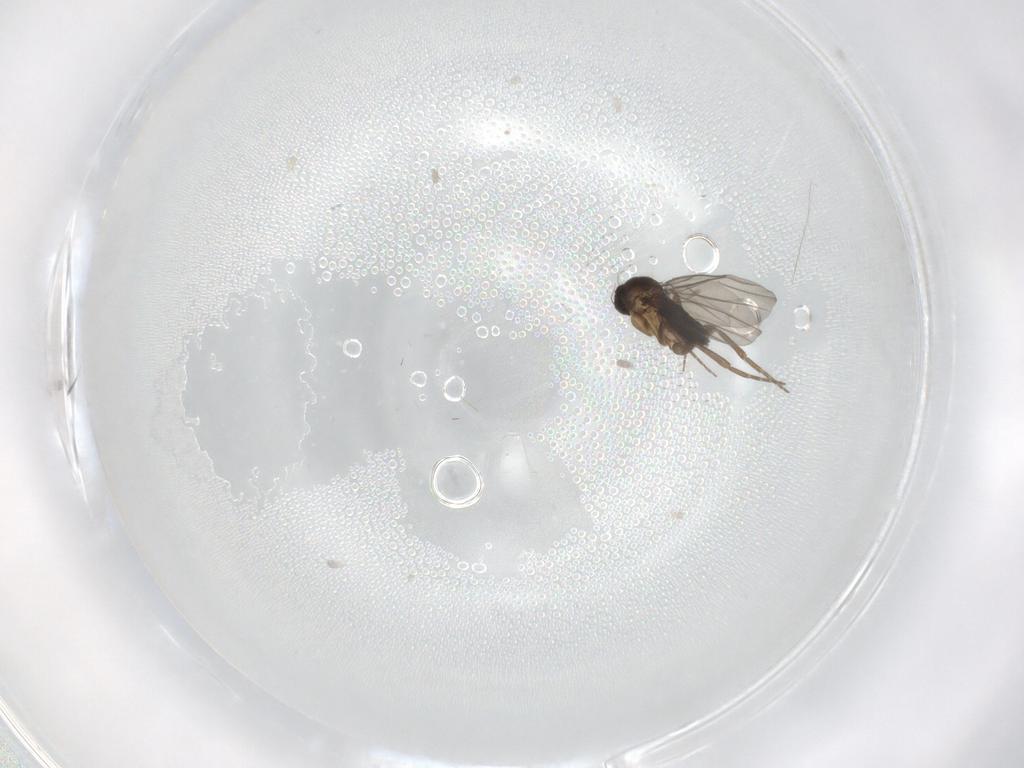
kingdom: Animalia
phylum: Arthropoda
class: Insecta
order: Diptera
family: Phoridae
